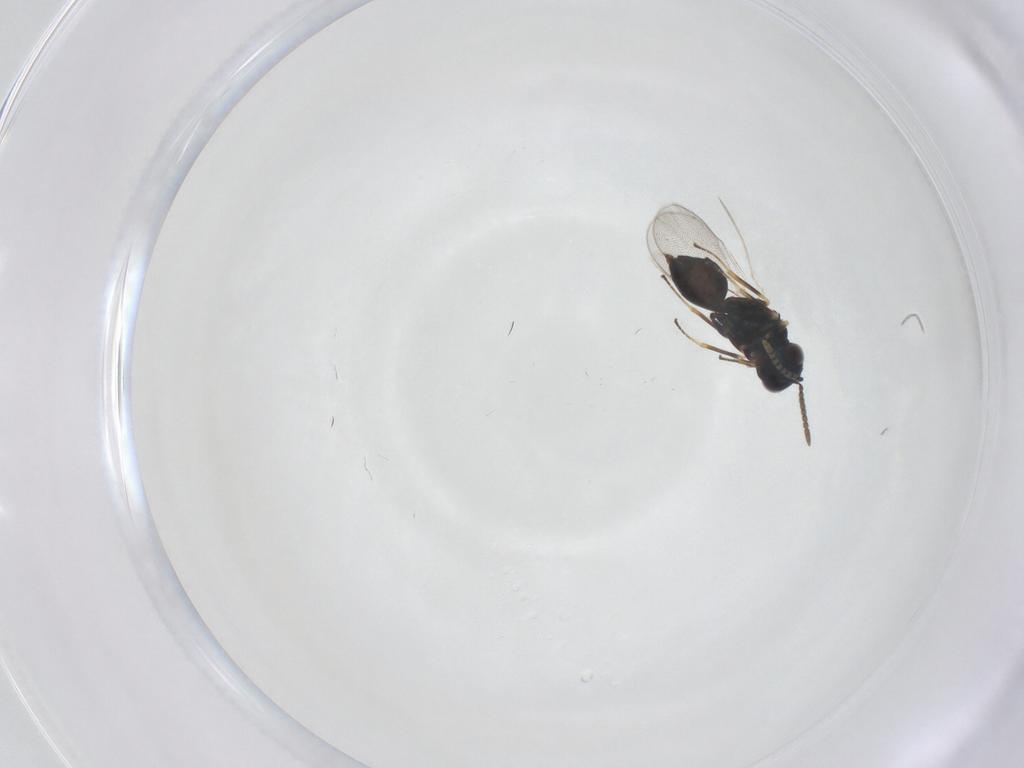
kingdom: Animalia
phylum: Arthropoda
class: Insecta
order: Hymenoptera
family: Pteromalidae
